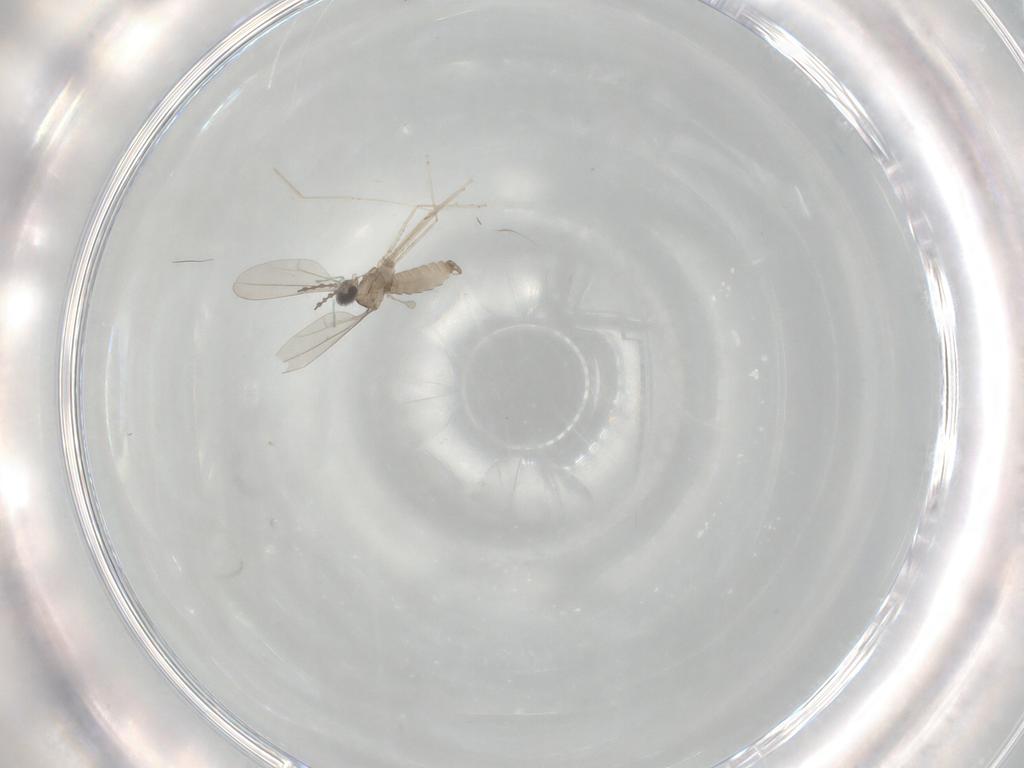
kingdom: Animalia
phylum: Arthropoda
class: Insecta
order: Diptera
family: Cecidomyiidae
